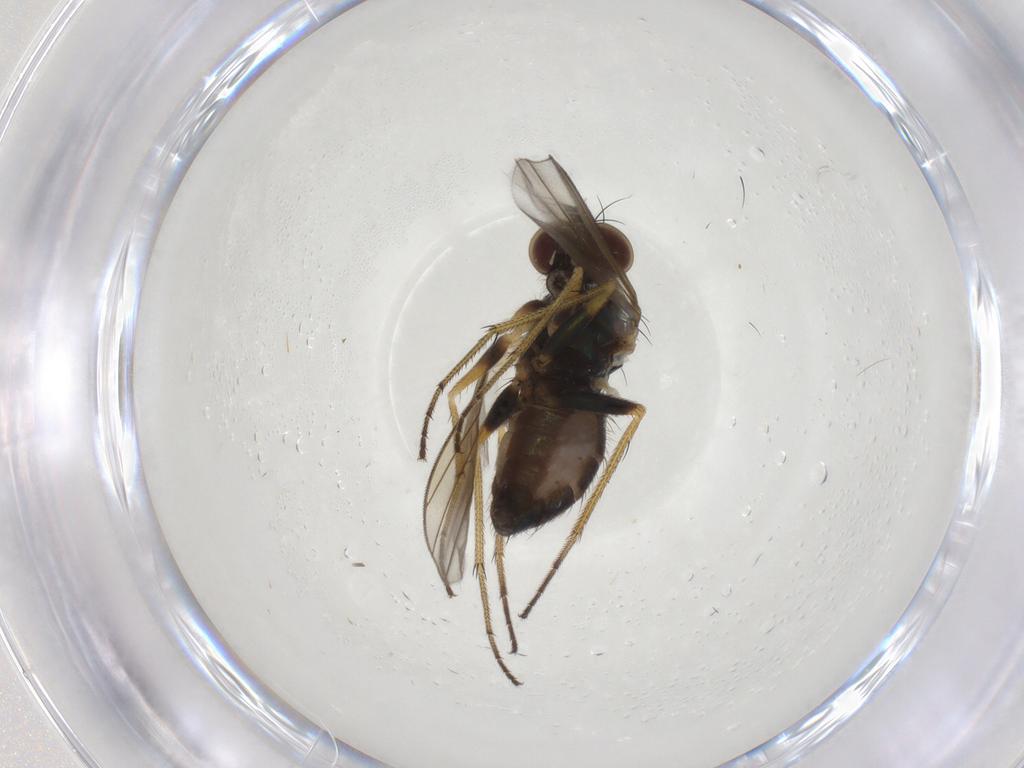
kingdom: Animalia
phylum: Arthropoda
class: Insecta
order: Diptera
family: Dolichopodidae
